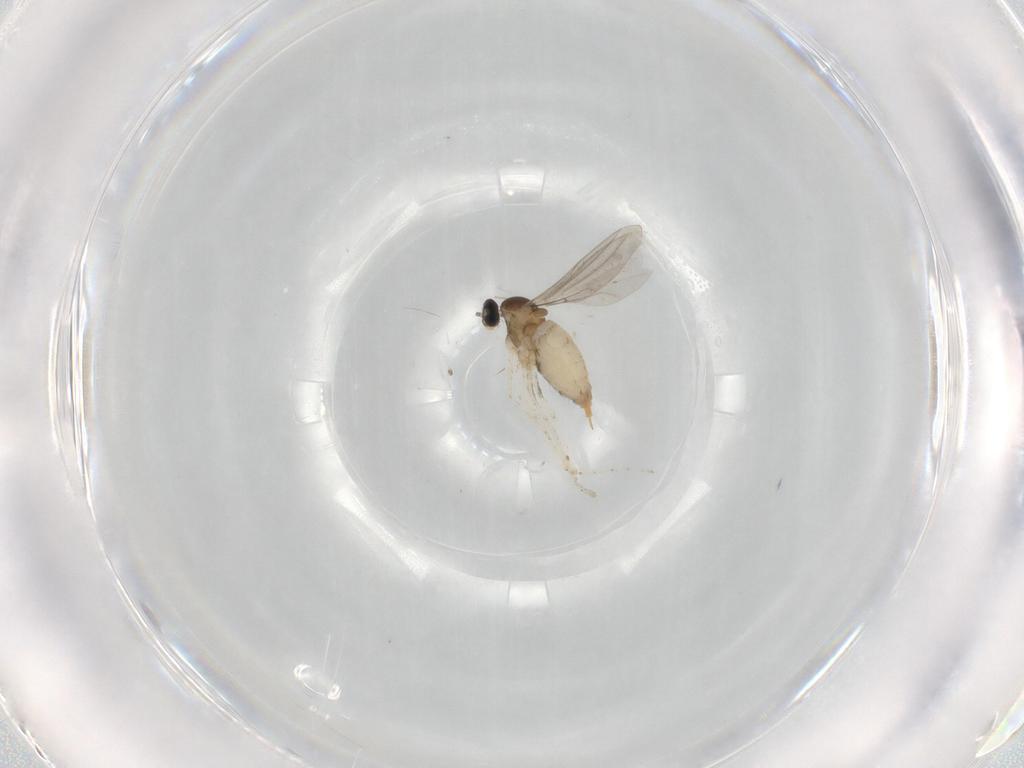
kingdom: Animalia
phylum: Arthropoda
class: Insecta
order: Diptera
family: Cecidomyiidae
